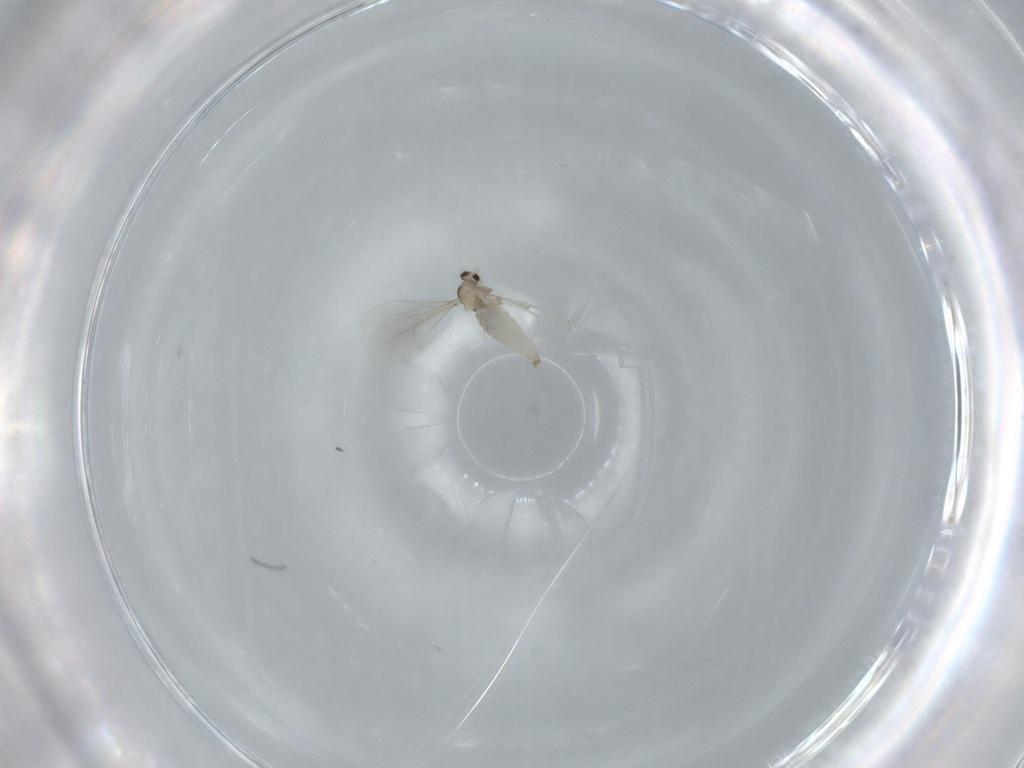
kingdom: Animalia
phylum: Arthropoda
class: Insecta
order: Diptera
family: Cecidomyiidae
